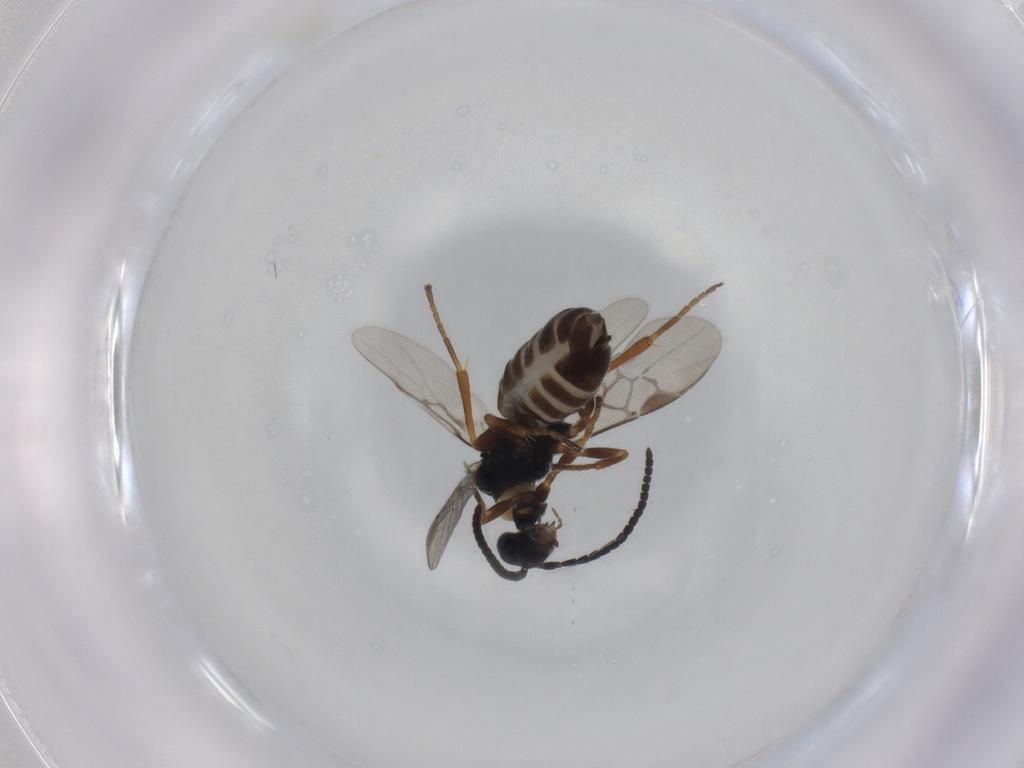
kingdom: Animalia
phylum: Arthropoda
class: Insecta
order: Hymenoptera
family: Braconidae
